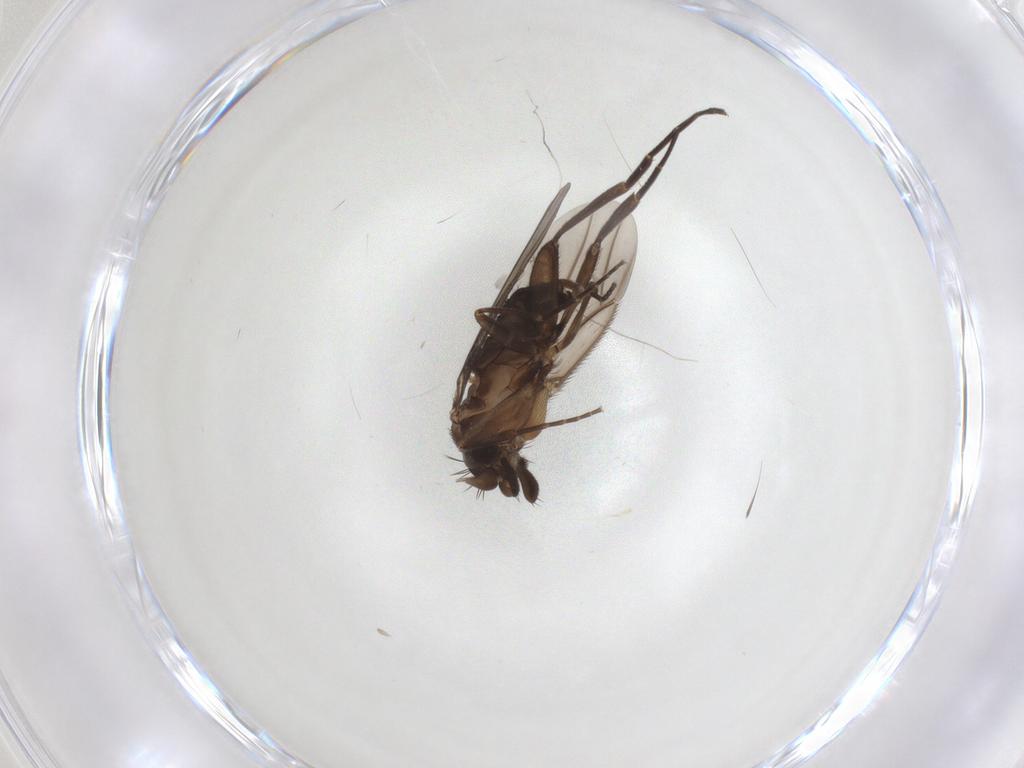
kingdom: Animalia
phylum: Arthropoda
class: Insecta
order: Diptera
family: Phoridae
